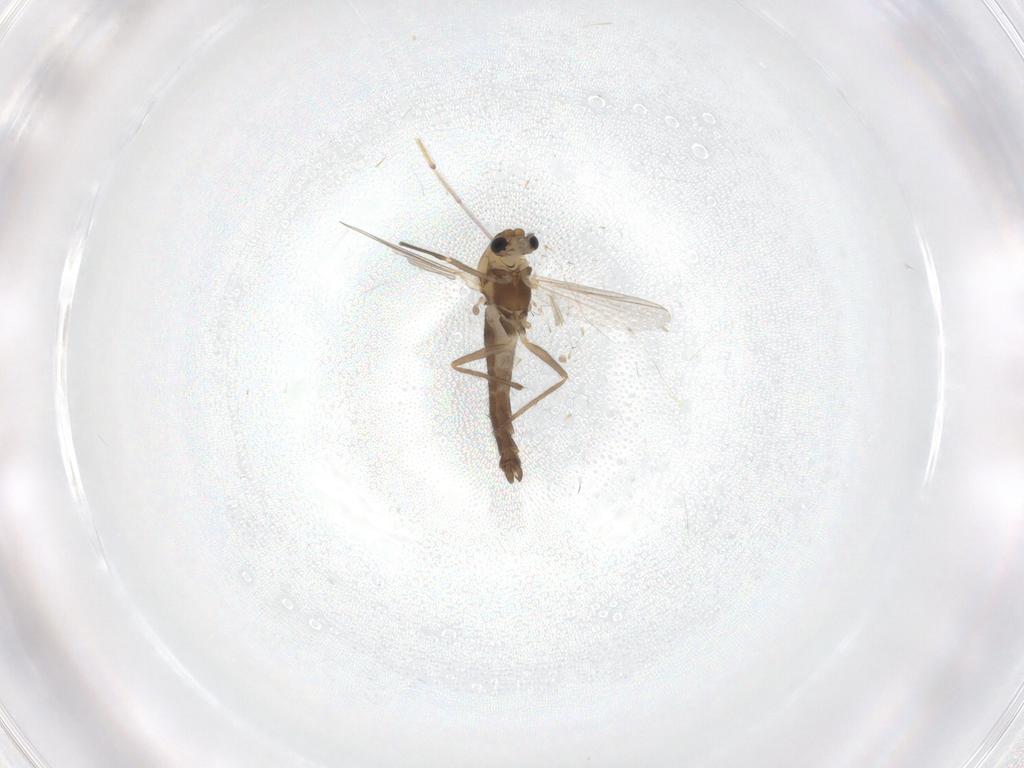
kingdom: Animalia
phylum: Arthropoda
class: Insecta
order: Diptera
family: Chironomidae
